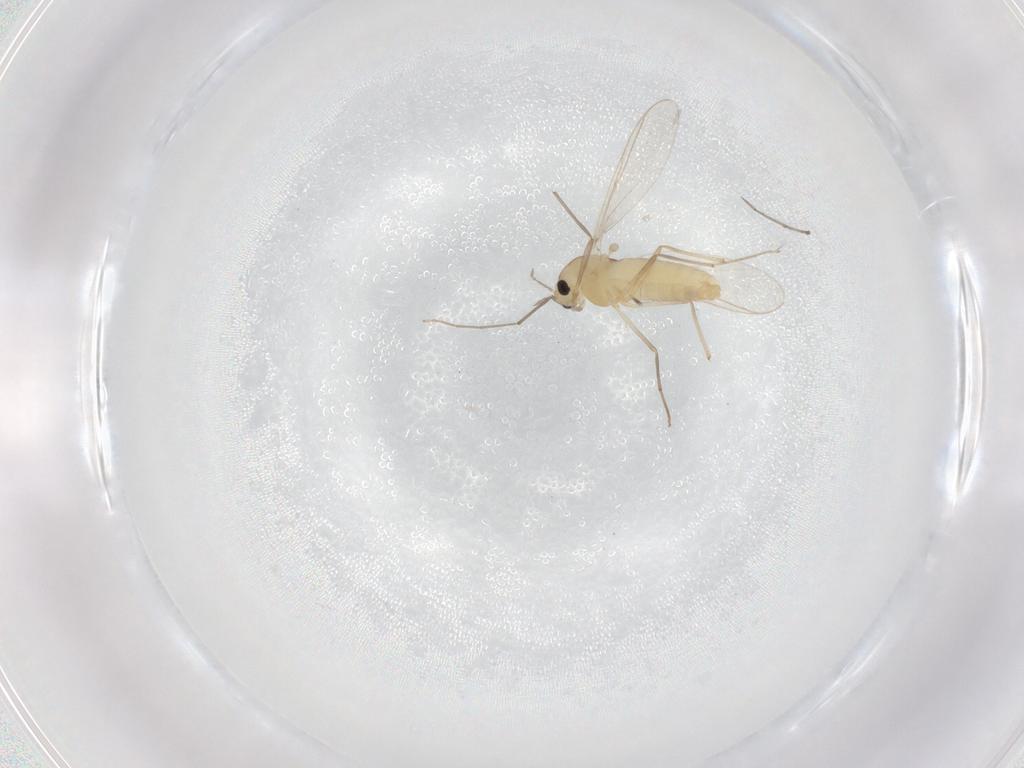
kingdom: Animalia
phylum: Arthropoda
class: Insecta
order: Diptera
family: Chironomidae
